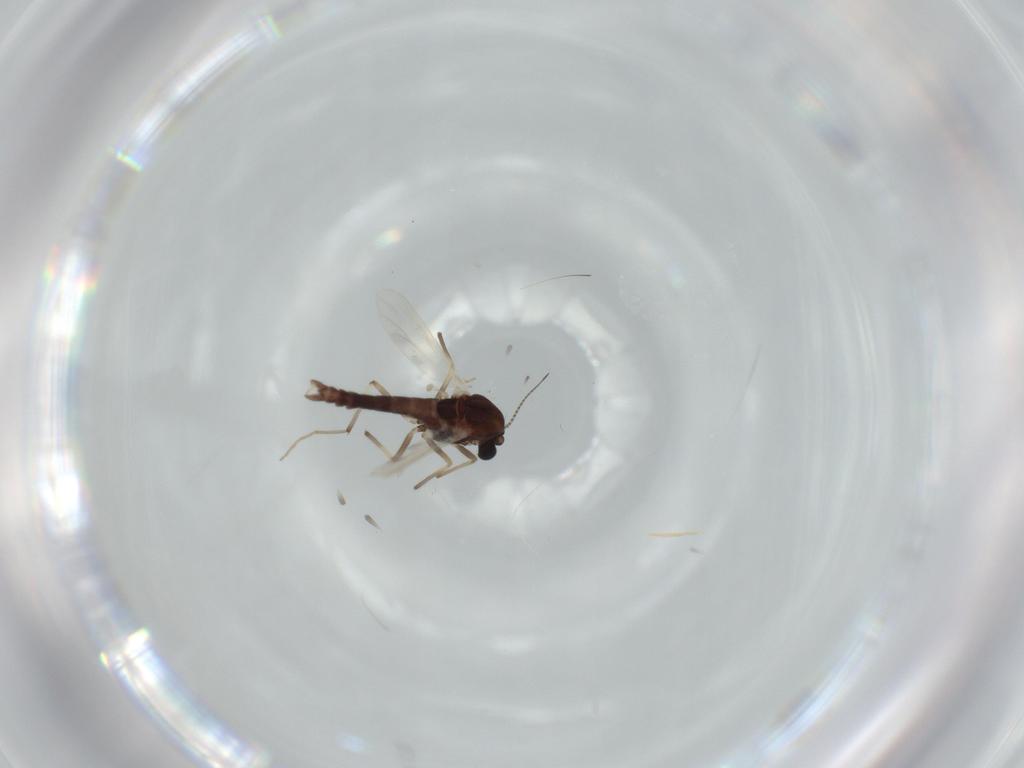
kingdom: Animalia
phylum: Arthropoda
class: Insecta
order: Diptera
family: Chironomidae
